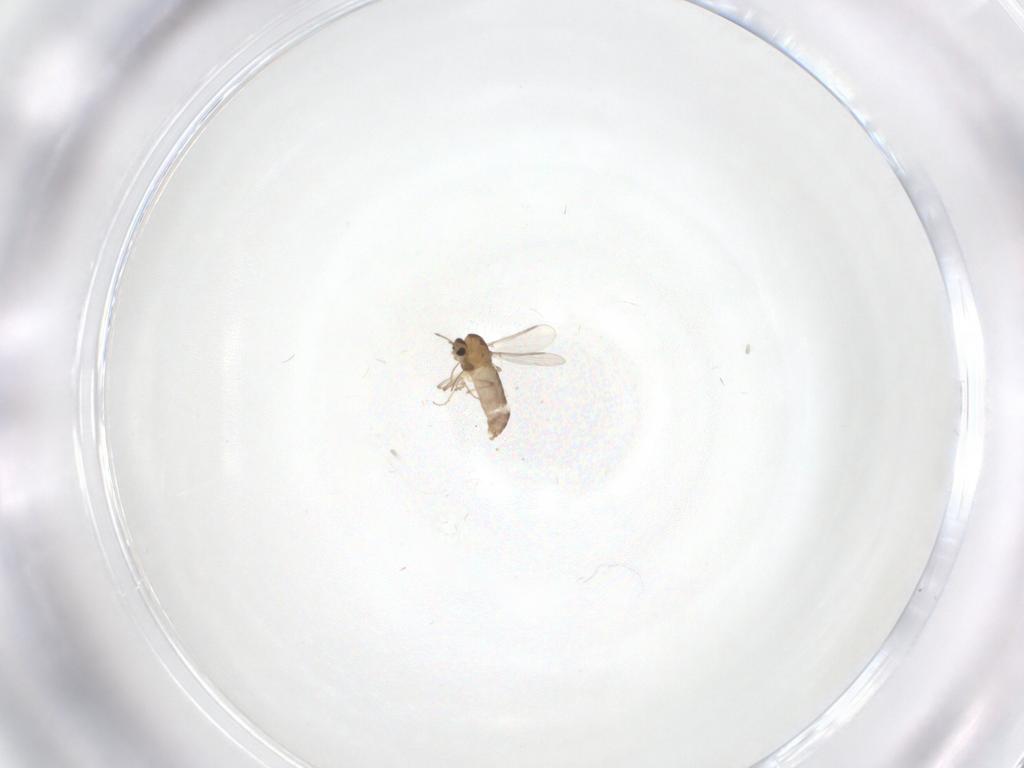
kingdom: Animalia
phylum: Arthropoda
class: Insecta
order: Diptera
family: Chironomidae
